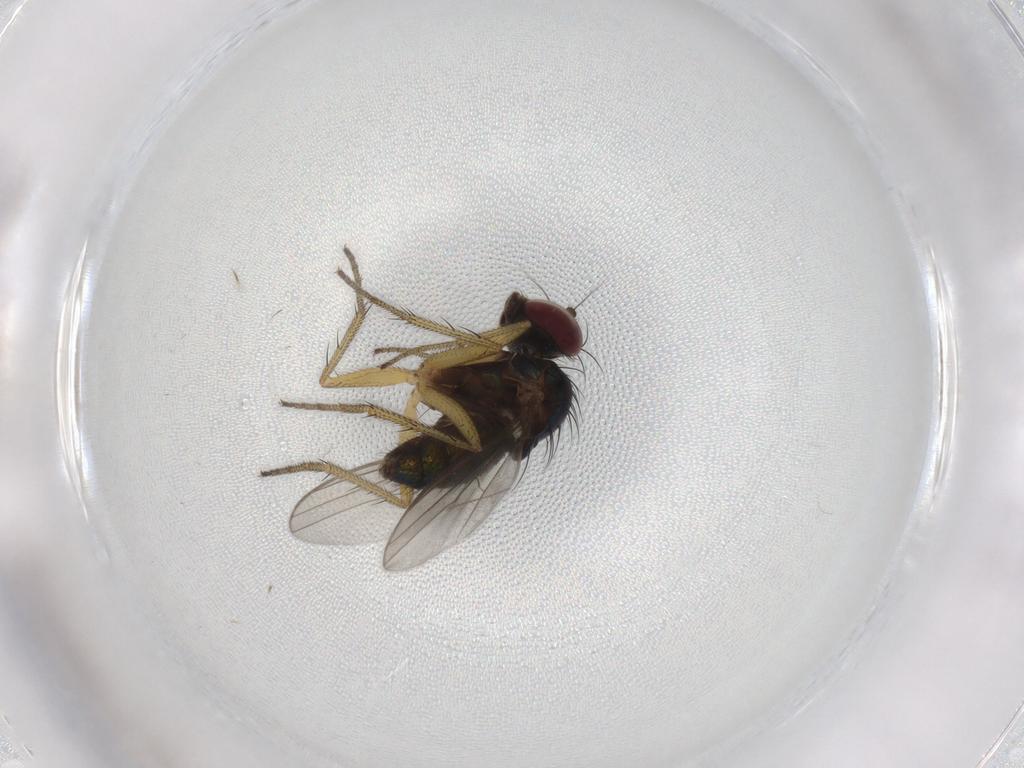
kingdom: Animalia
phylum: Arthropoda
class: Insecta
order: Diptera
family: Dolichopodidae
